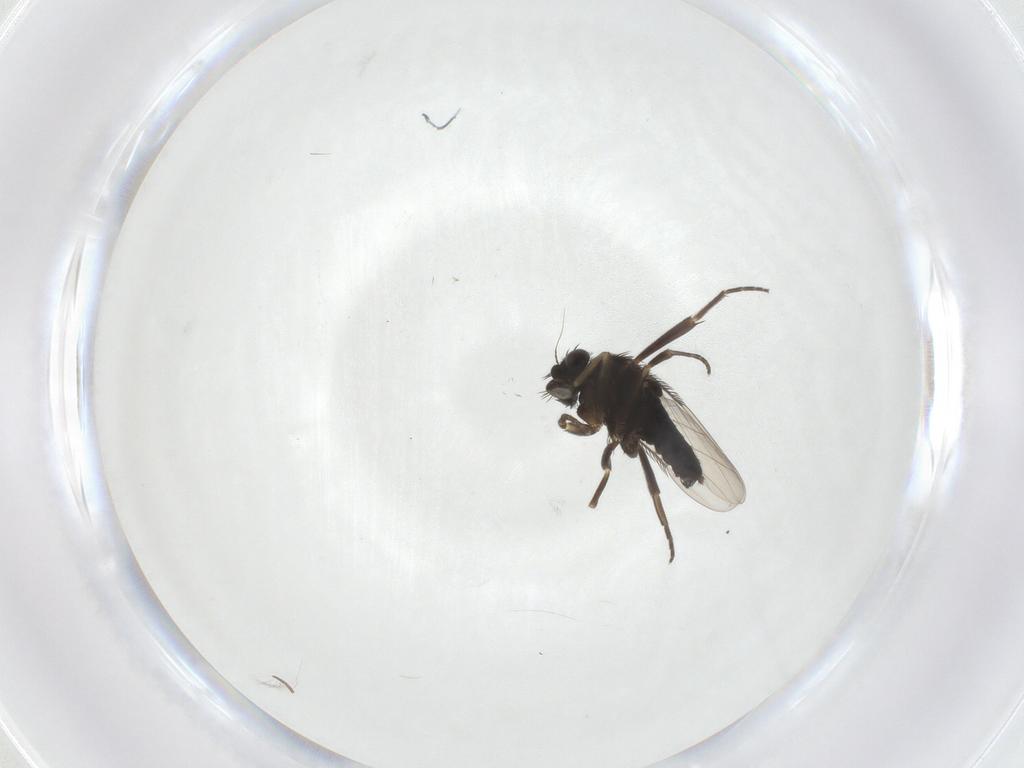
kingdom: Animalia
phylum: Arthropoda
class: Insecta
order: Diptera
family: Phoridae
